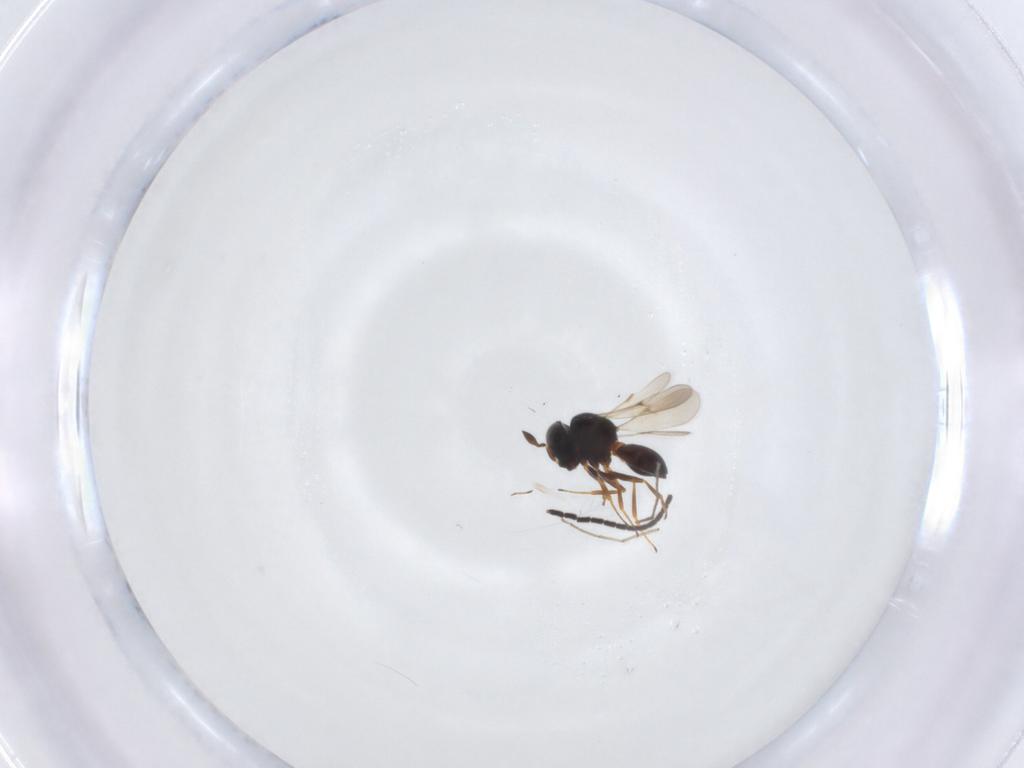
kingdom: Animalia
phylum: Arthropoda
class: Insecta
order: Hymenoptera
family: Scelionidae
